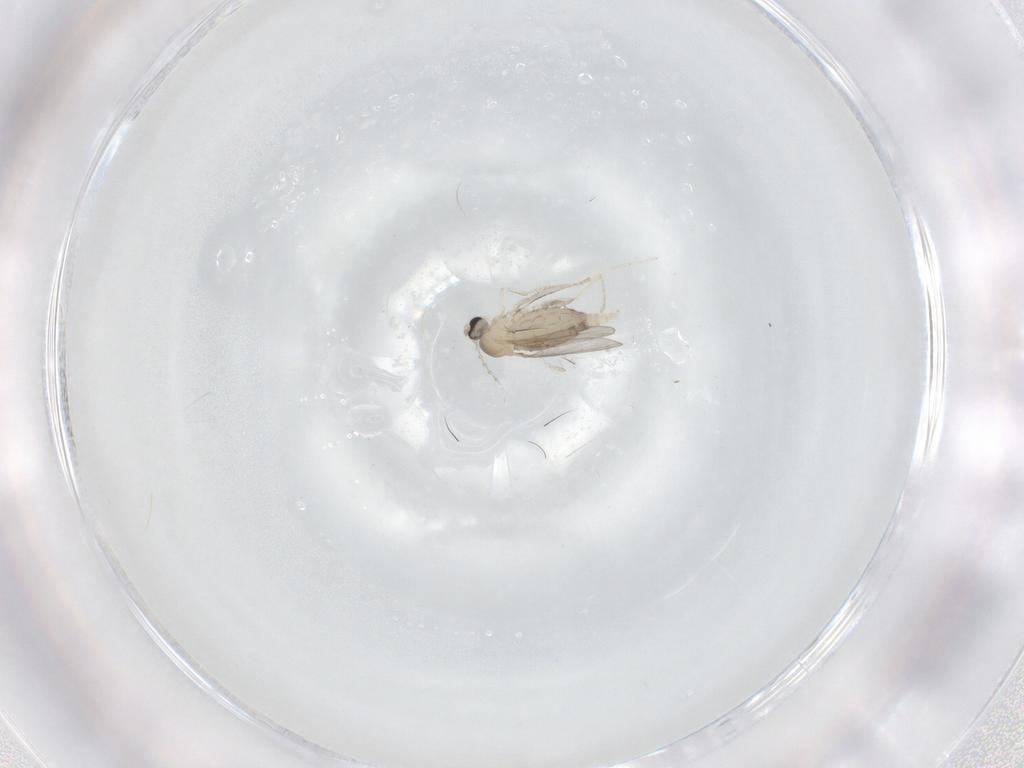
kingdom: Animalia
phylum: Arthropoda
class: Insecta
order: Diptera
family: Cecidomyiidae
